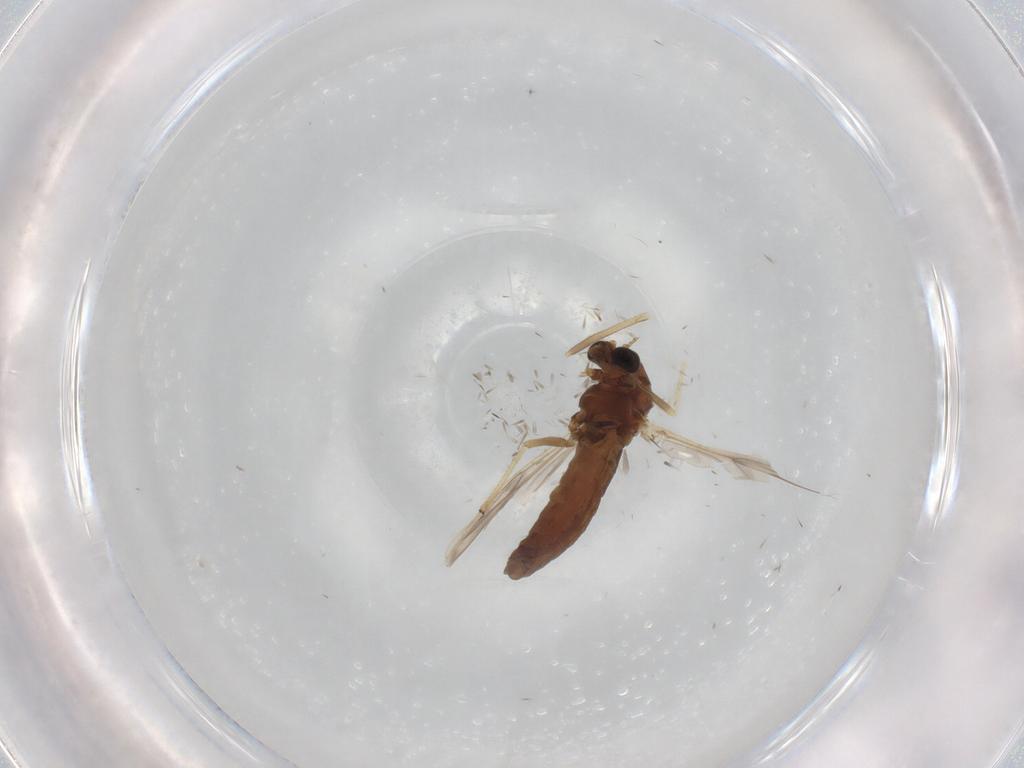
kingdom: Animalia
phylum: Arthropoda
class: Insecta
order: Diptera
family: Chironomidae
